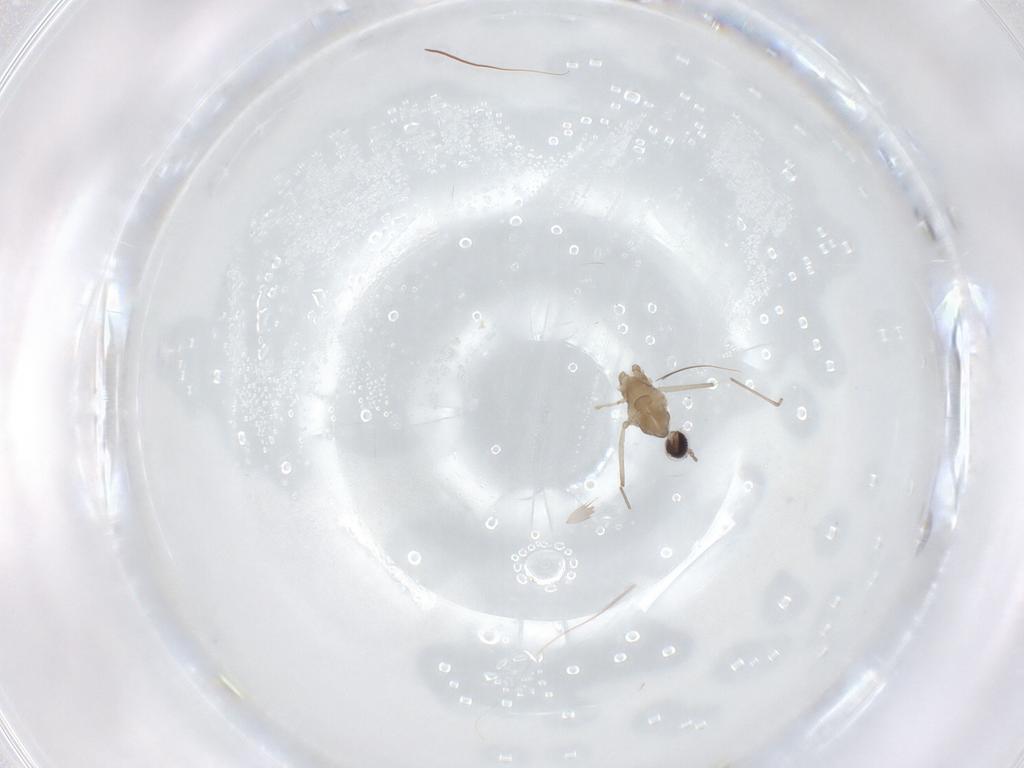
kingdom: Animalia
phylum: Arthropoda
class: Insecta
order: Diptera
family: Cecidomyiidae
